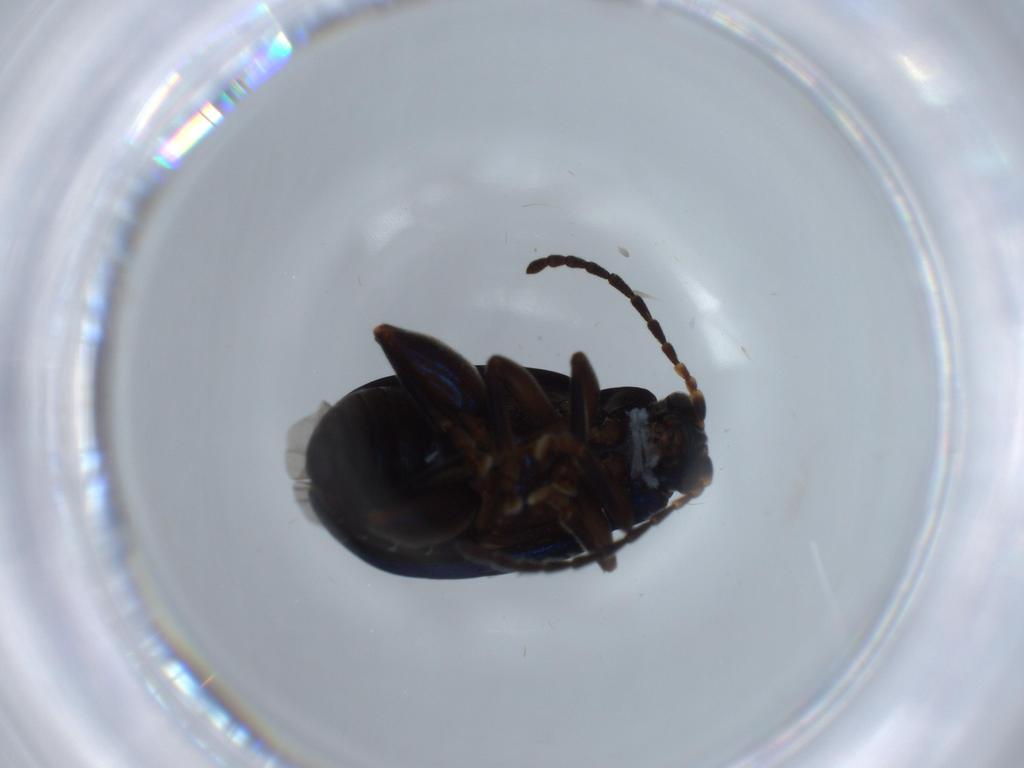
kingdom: Animalia
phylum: Arthropoda
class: Insecta
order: Coleoptera
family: Chrysomelidae
